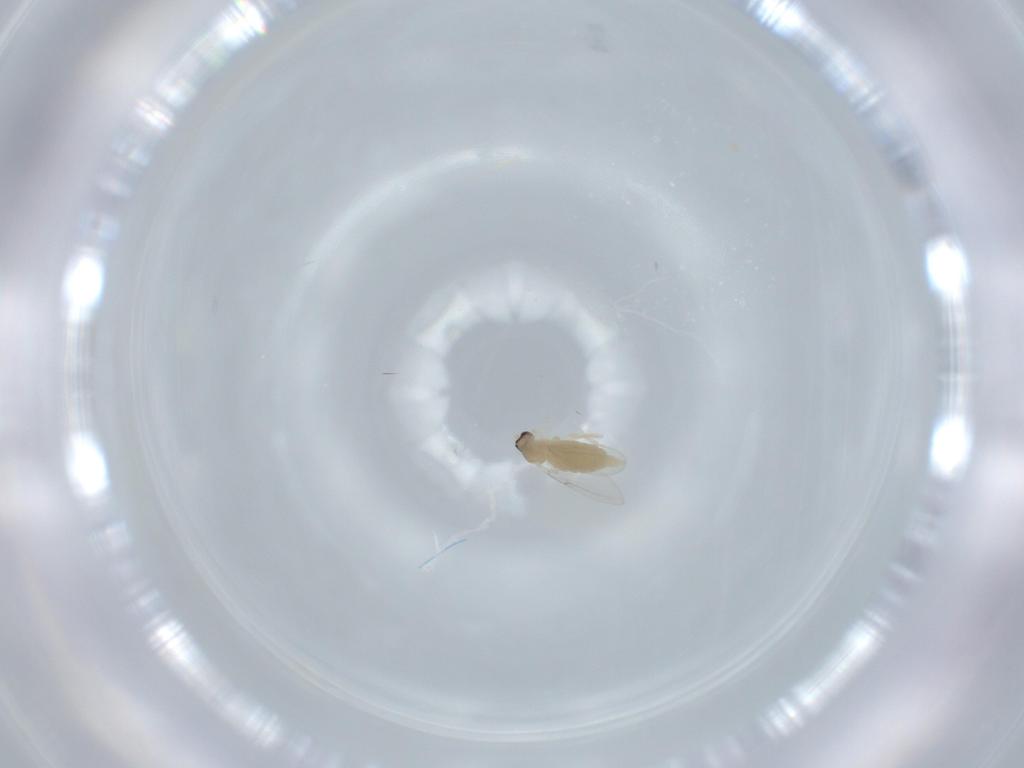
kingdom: Animalia
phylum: Arthropoda
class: Insecta
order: Diptera
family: Cecidomyiidae
